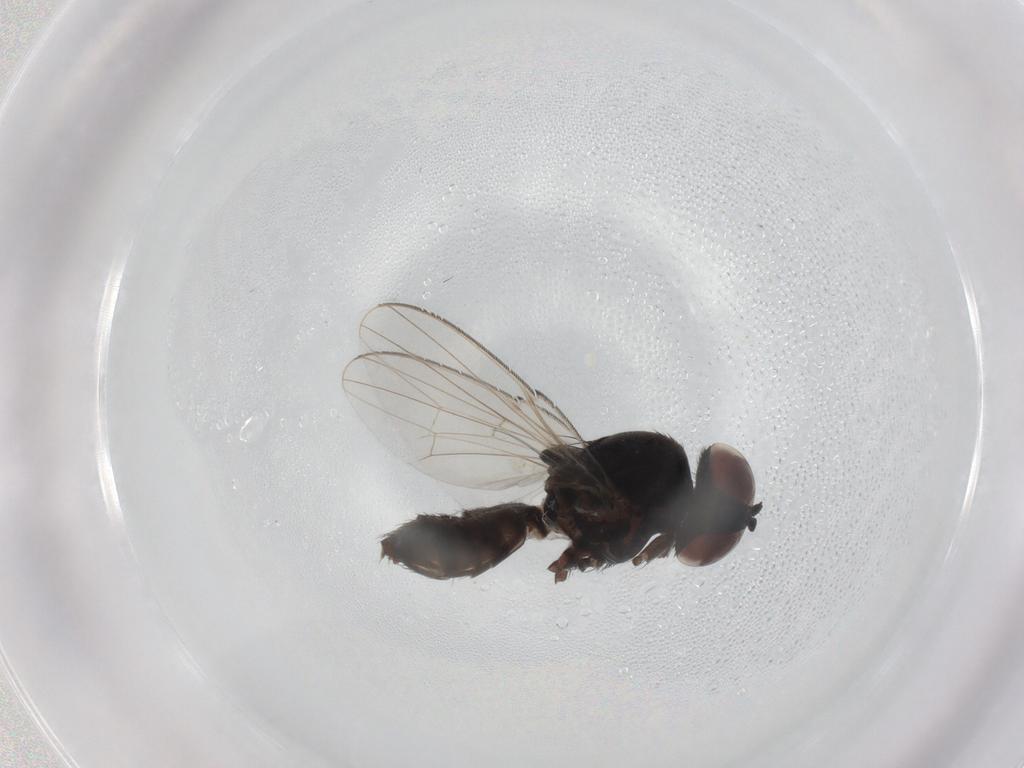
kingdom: Animalia
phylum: Arthropoda
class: Insecta
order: Diptera
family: Milichiidae
